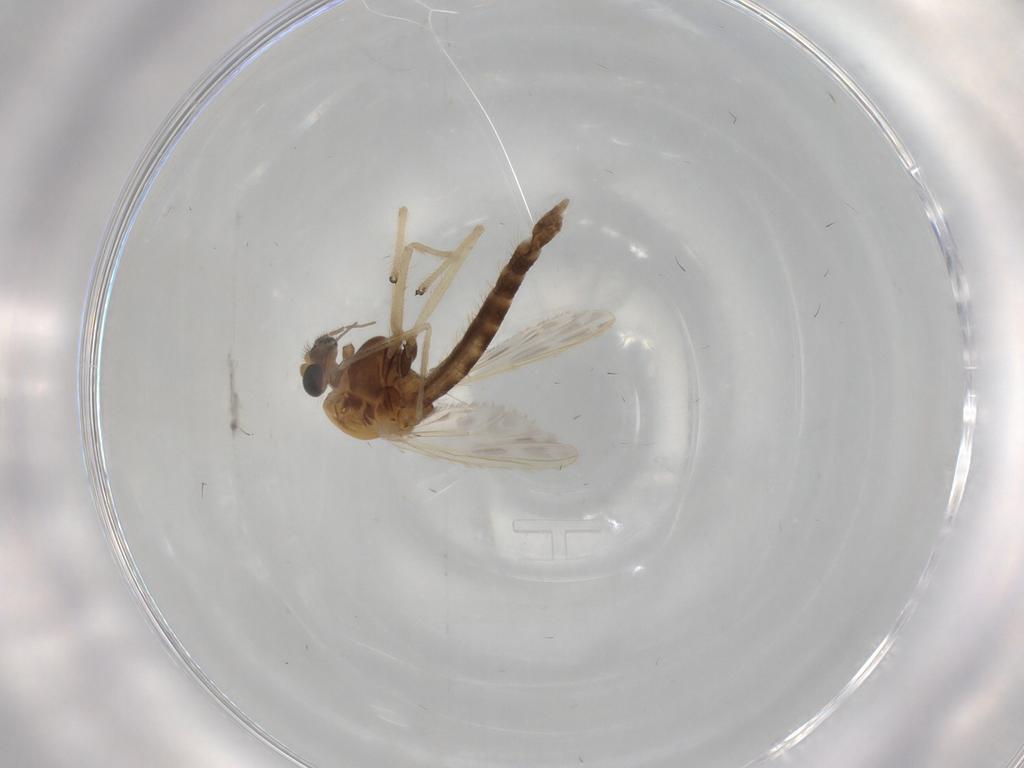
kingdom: Animalia
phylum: Arthropoda
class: Insecta
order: Diptera
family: Chironomidae
